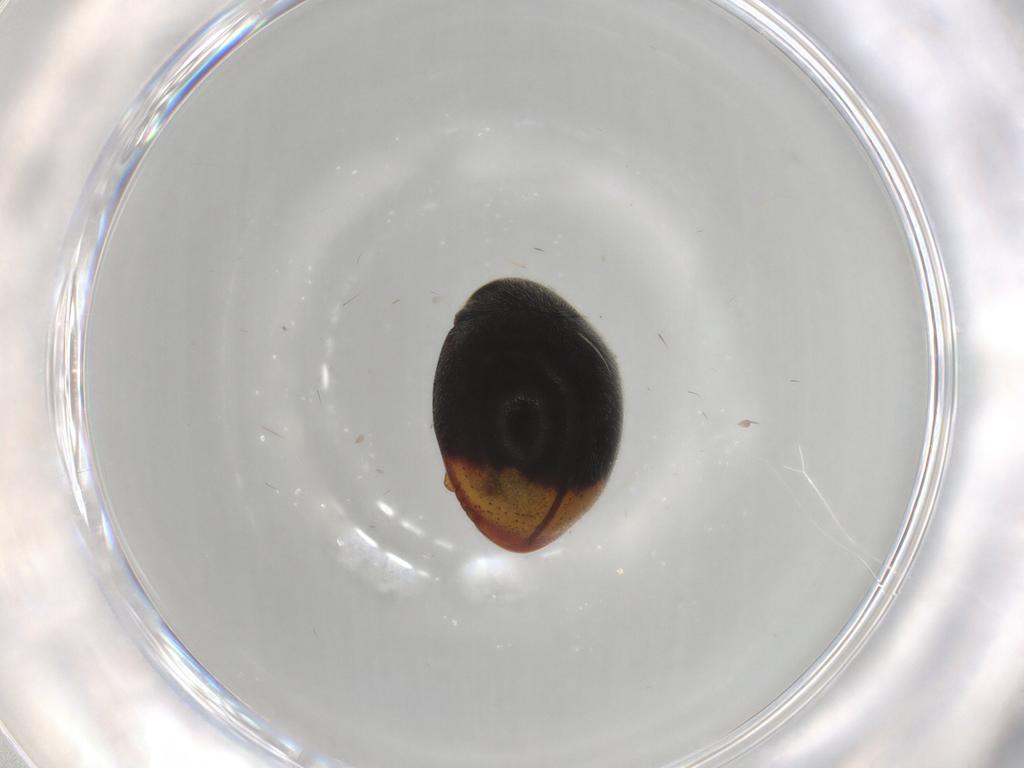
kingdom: Animalia
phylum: Arthropoda
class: Insecta
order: Coleoptera
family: Coccinellidae
